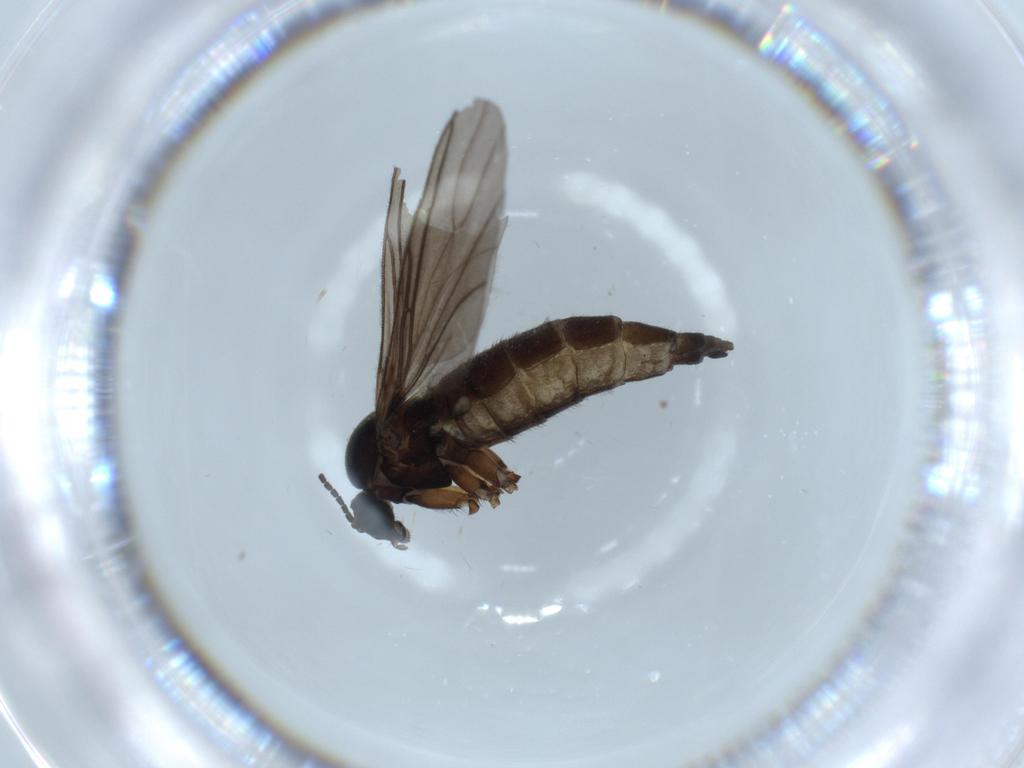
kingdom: Animalia
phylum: Arthropoda
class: Insecta
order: Diptera
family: Sciaridae
